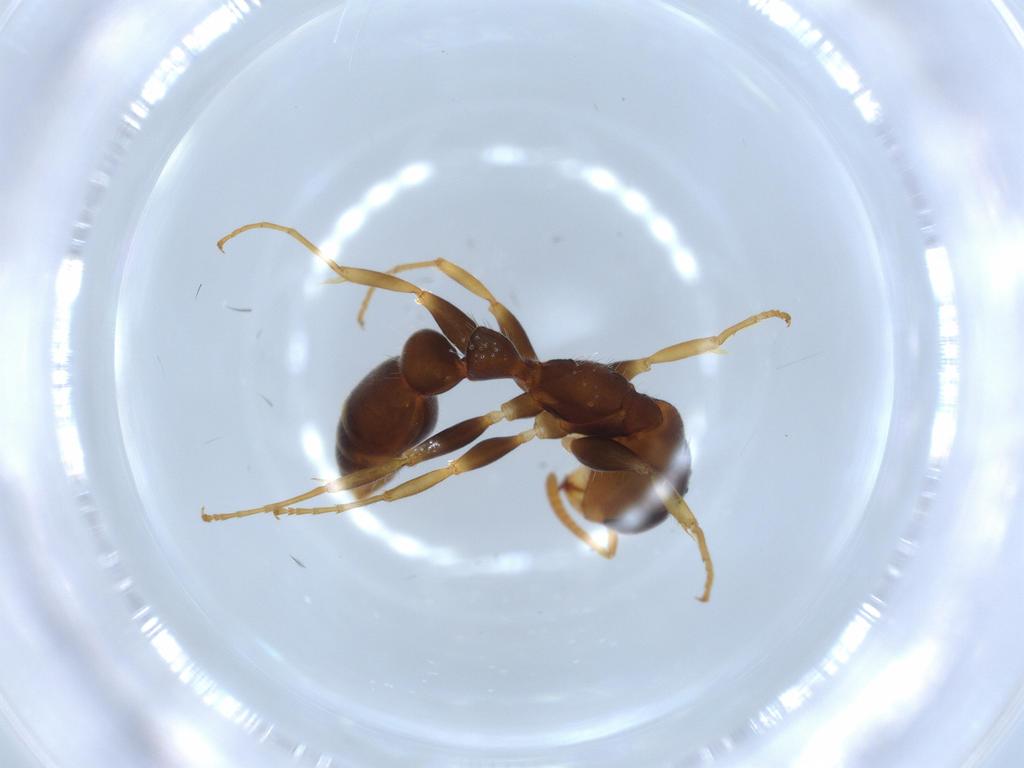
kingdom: Animalia
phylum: Arthropoda
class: Insecta
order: Hymenoptera
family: Formicidae
